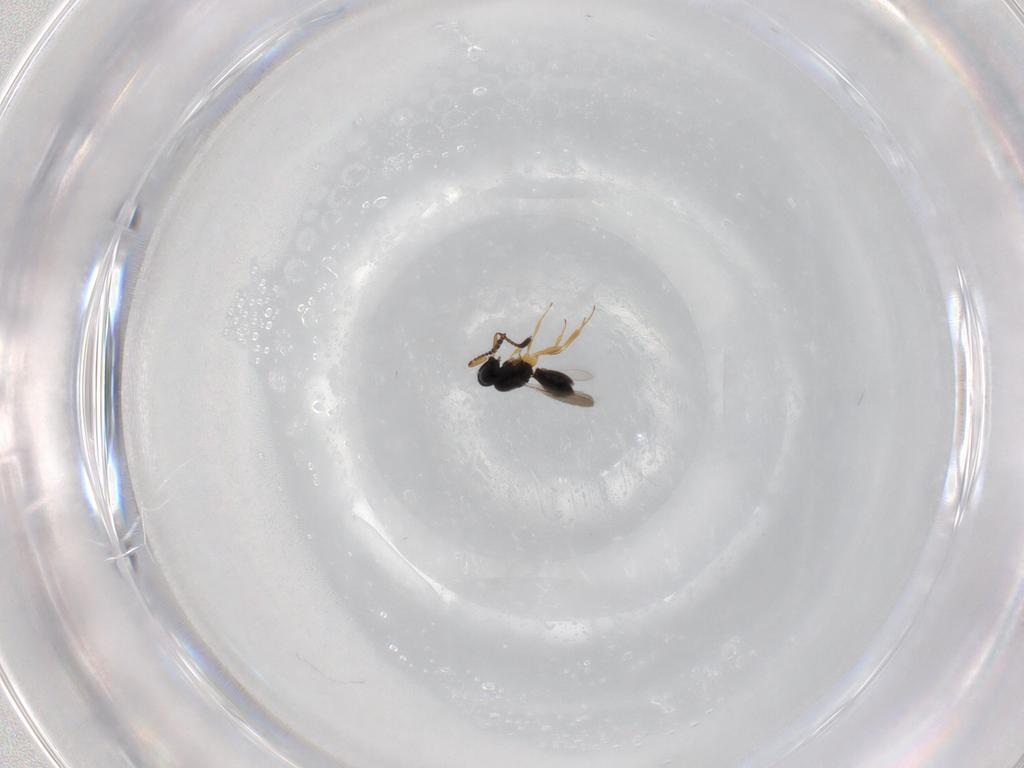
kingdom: Animalia
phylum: Arthropoda
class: Insecta
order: Hymenoptera
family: Scelionidae
